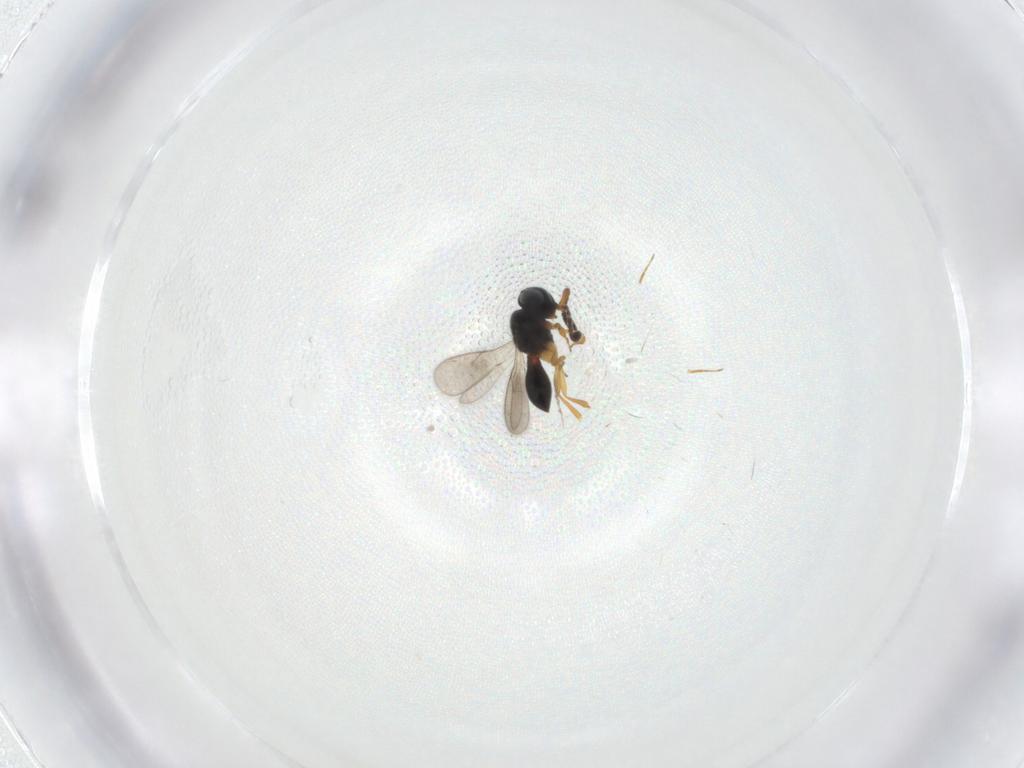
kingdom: Animalia
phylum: Arthropoda
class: Insecta
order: Hymenoptera
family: Scelionidae
